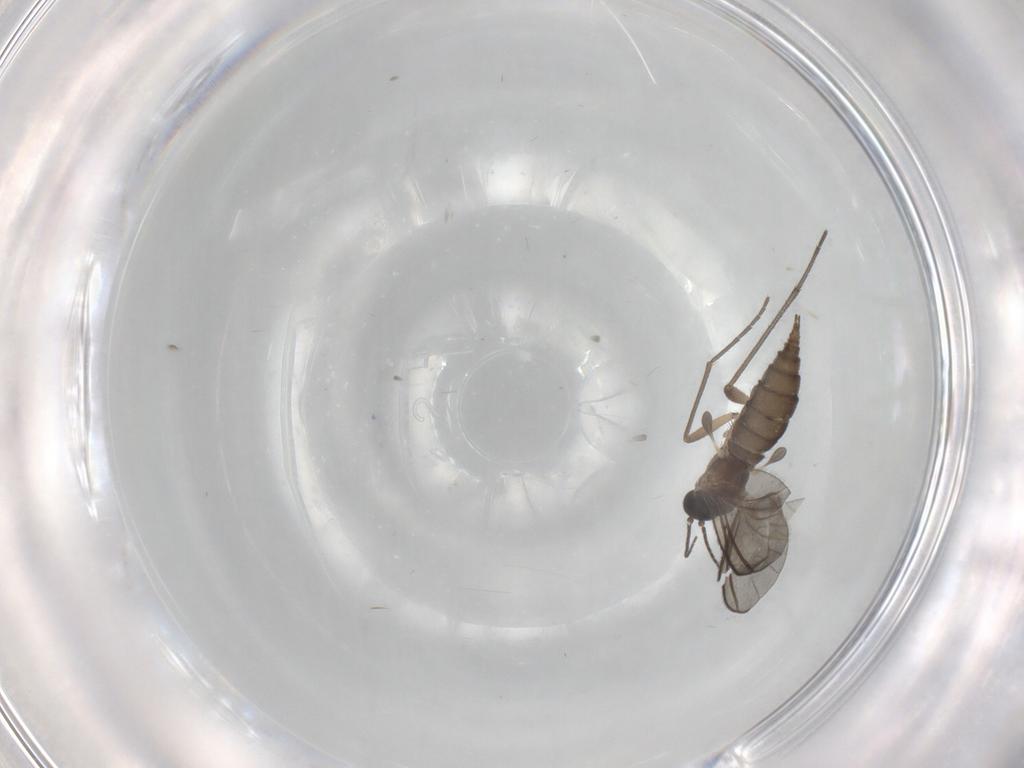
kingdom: Animalia
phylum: Arthropoda
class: Insecta
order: Diptera
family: Sciaridae
